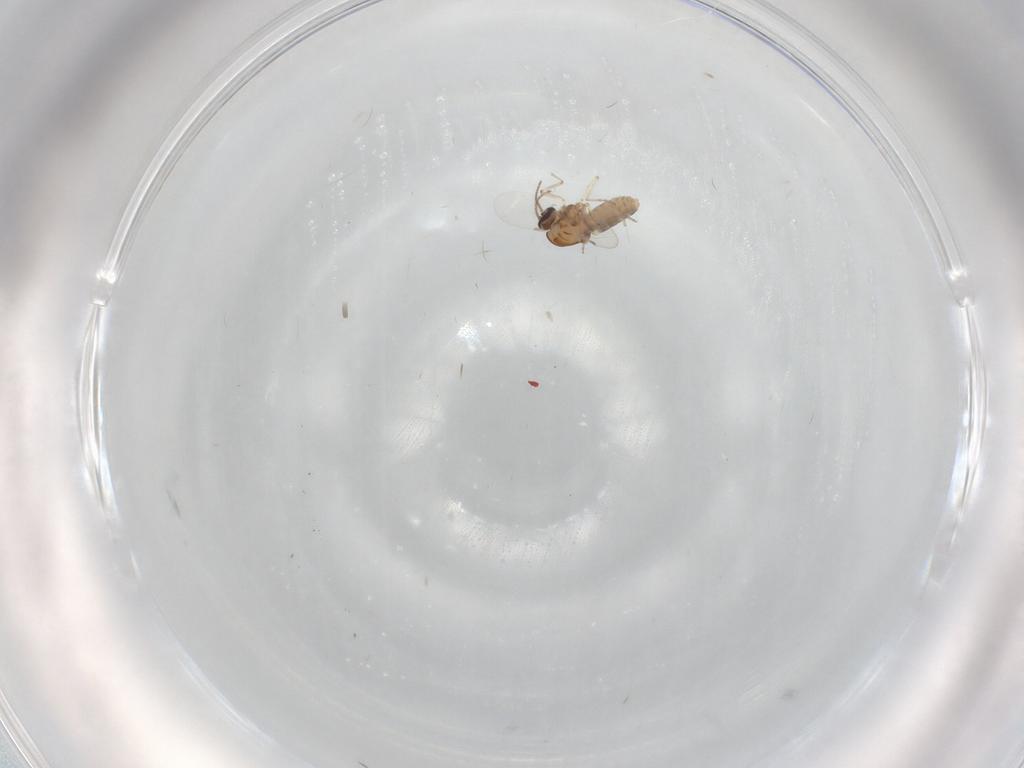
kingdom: Animalia
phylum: Arthropoda
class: Insecta
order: Diptera
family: Ceratopogonidae
